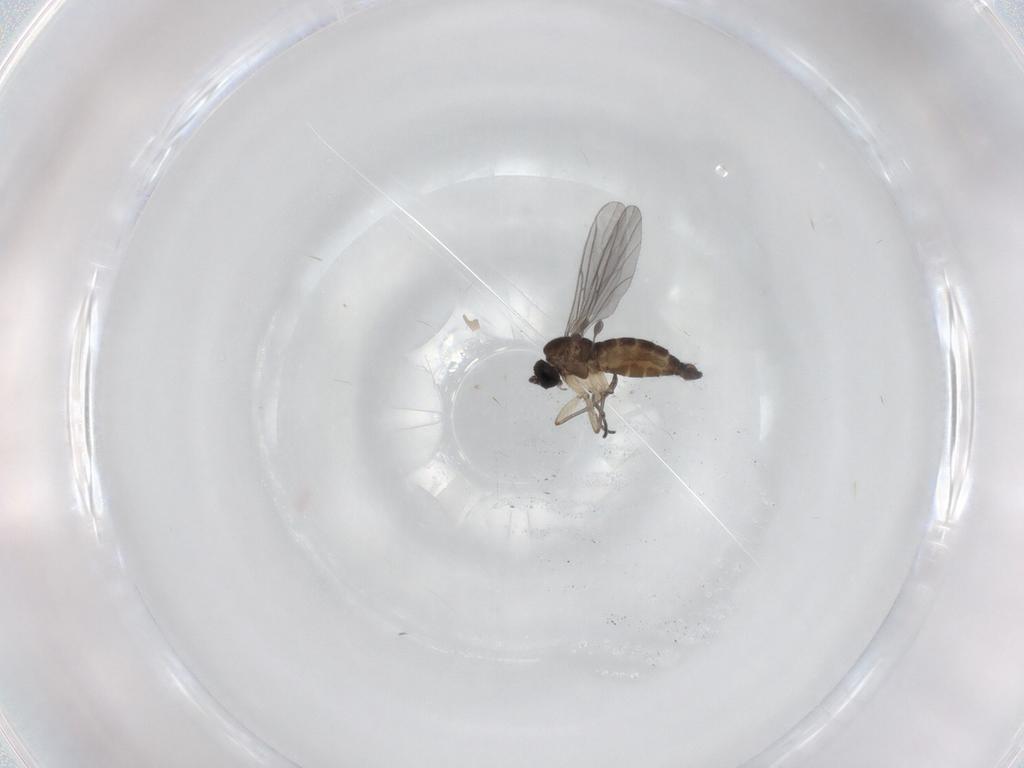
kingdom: Animalia
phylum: Arthropoda
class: Insecta
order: Diptera
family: Sciaridae
